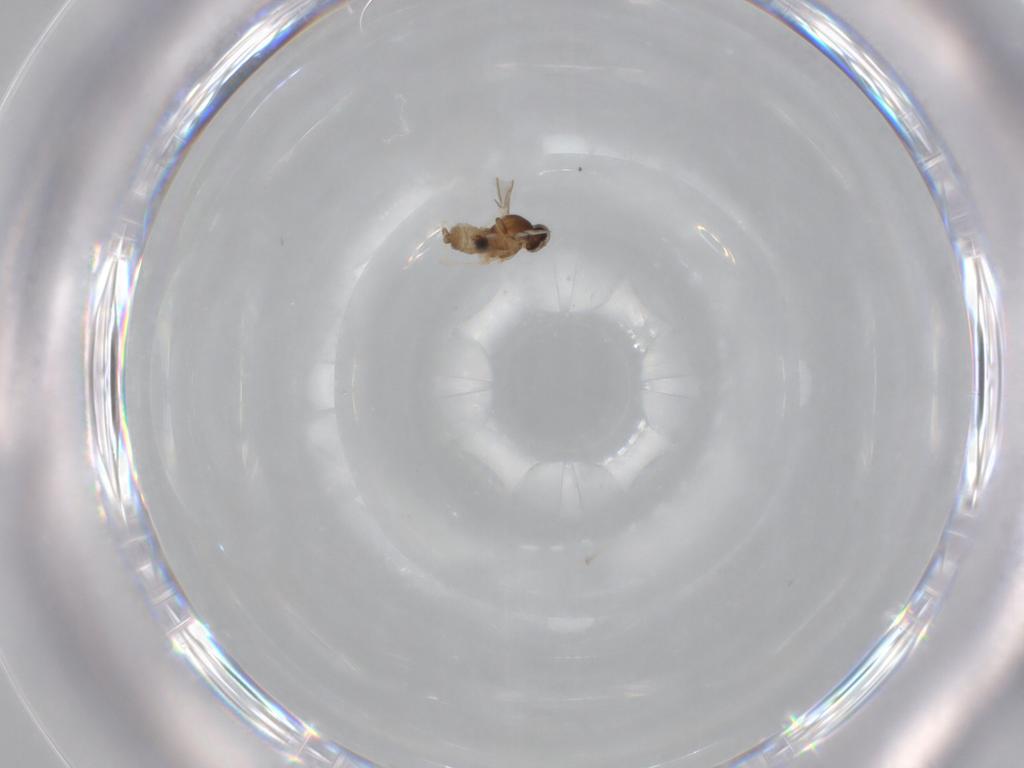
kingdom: Animalia
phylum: Arthropoda
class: Insecta
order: Diptera
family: Cecidomyiidae
